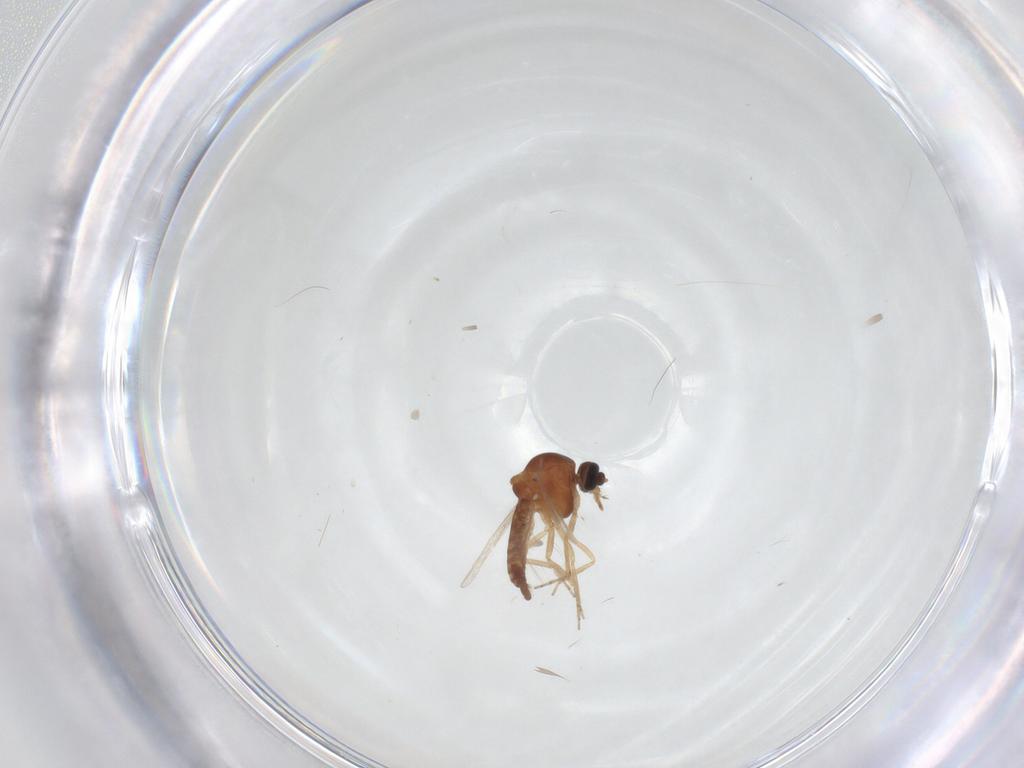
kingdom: Animalia
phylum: Arthropoda
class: Insecta
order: Diptera
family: Ceratopogonidae
